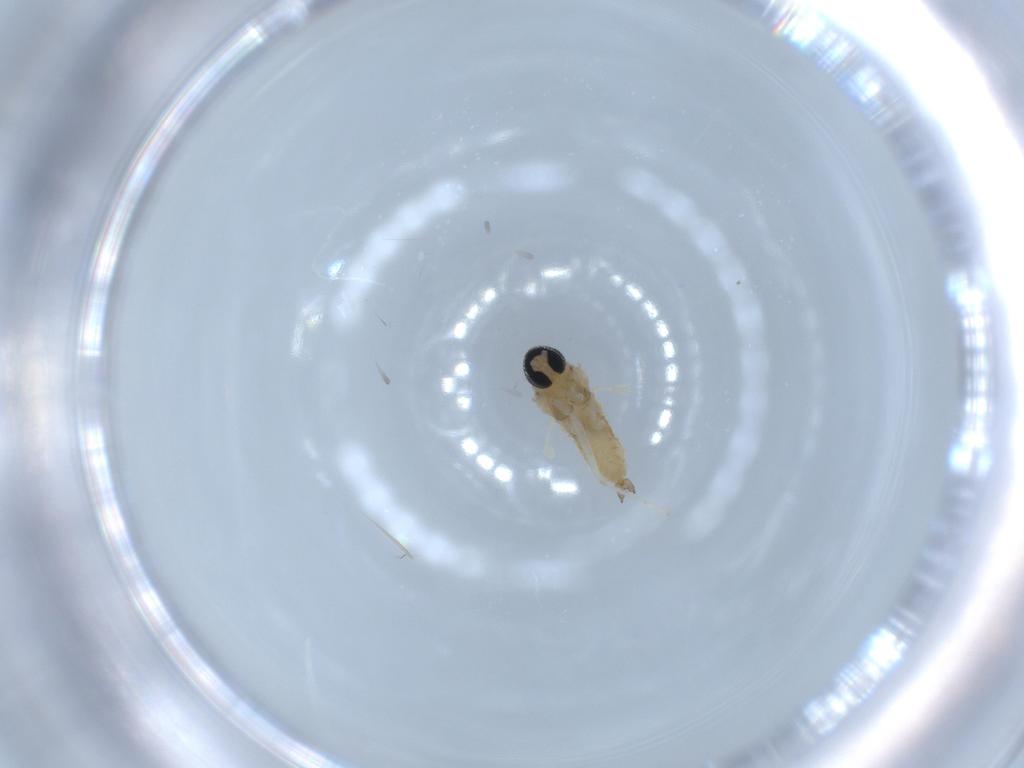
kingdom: Animalia
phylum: Arthropoda
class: Insecta
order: Diptera
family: Cecidomyiidae
